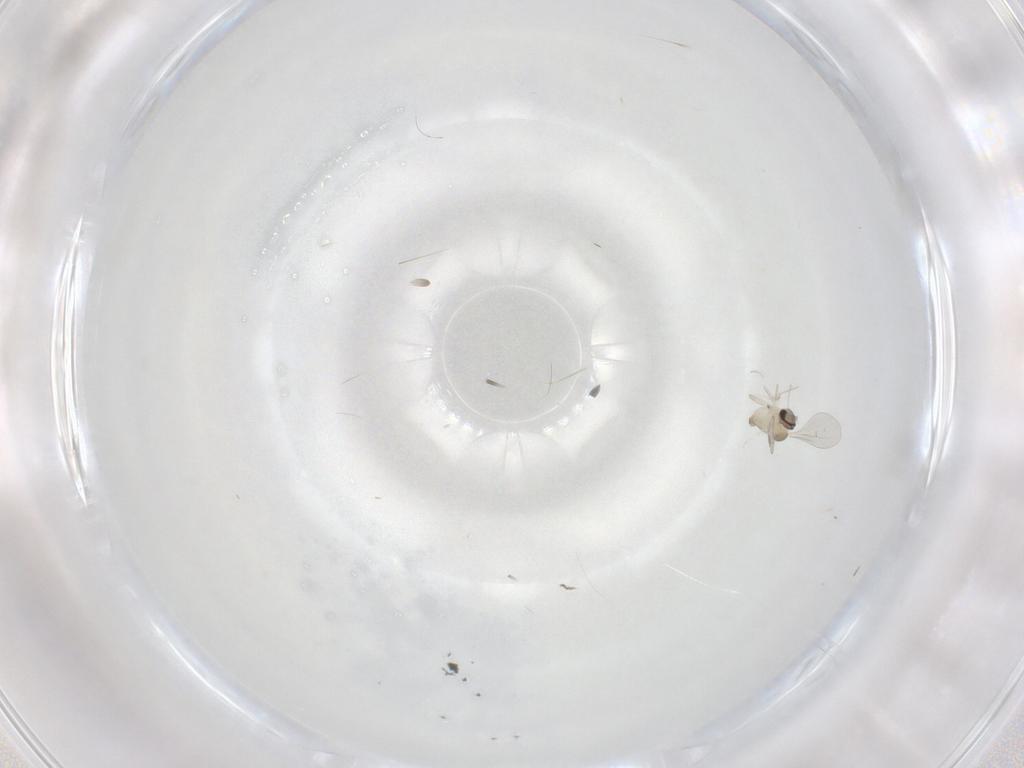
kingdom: Animalia
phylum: Arthropoda
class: Insecta
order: Diptera
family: Cecidomyiidae
